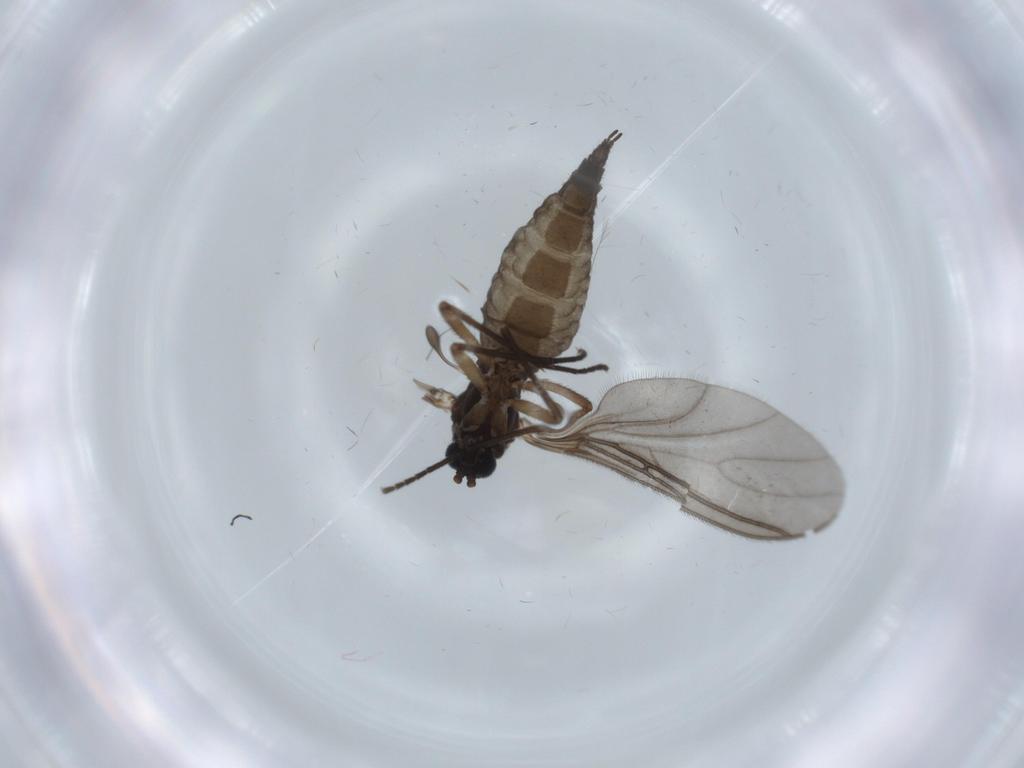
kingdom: Animalia
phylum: Arthropoda
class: Insecta
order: Diptera
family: Sciaridae
